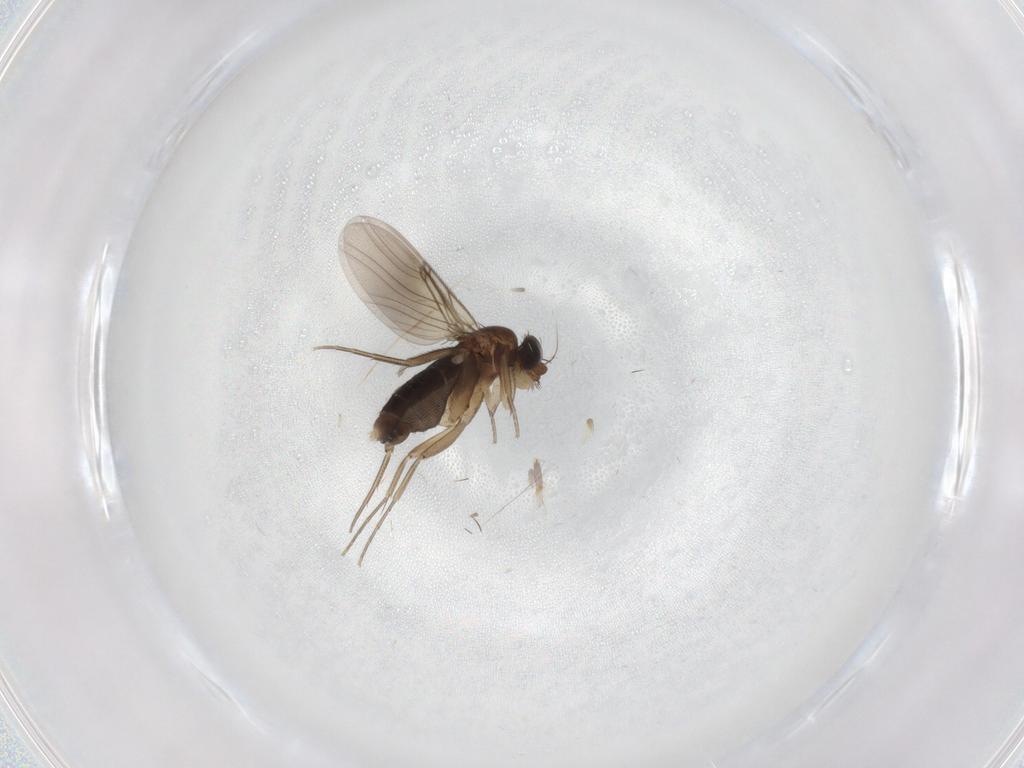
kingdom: Animalia
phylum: Arthropoda
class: Insecta
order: Diptera
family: Phoridae
